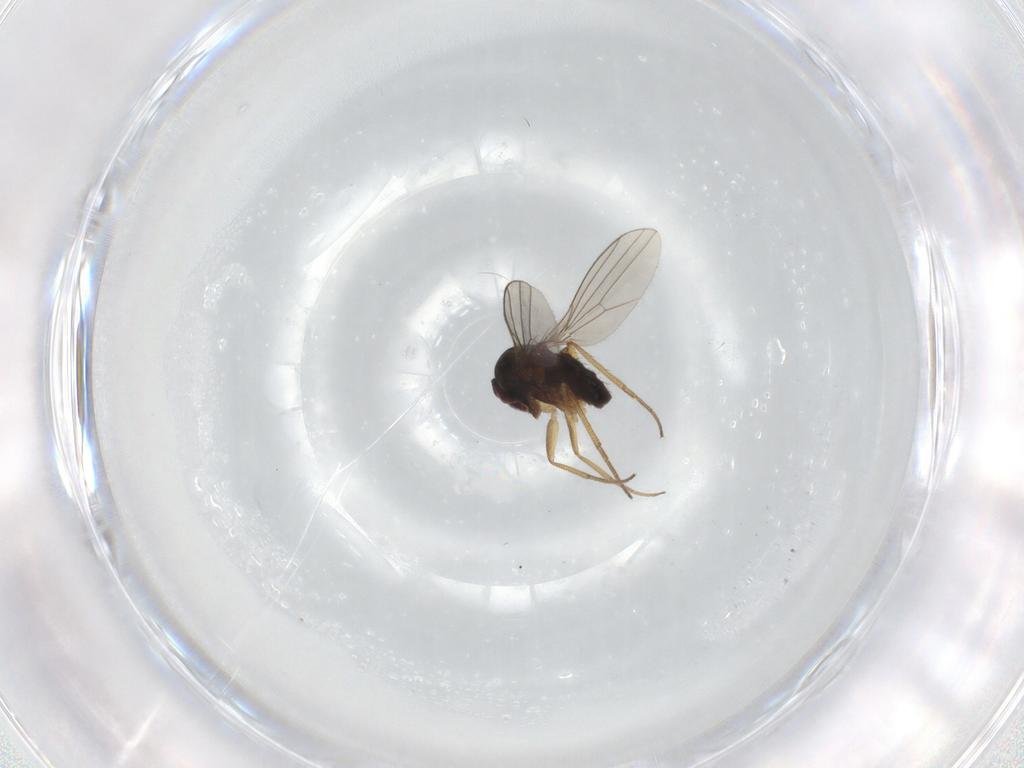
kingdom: Animalia
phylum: Arthropoda
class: Insecta
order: Diptera
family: Dolichopodidae
